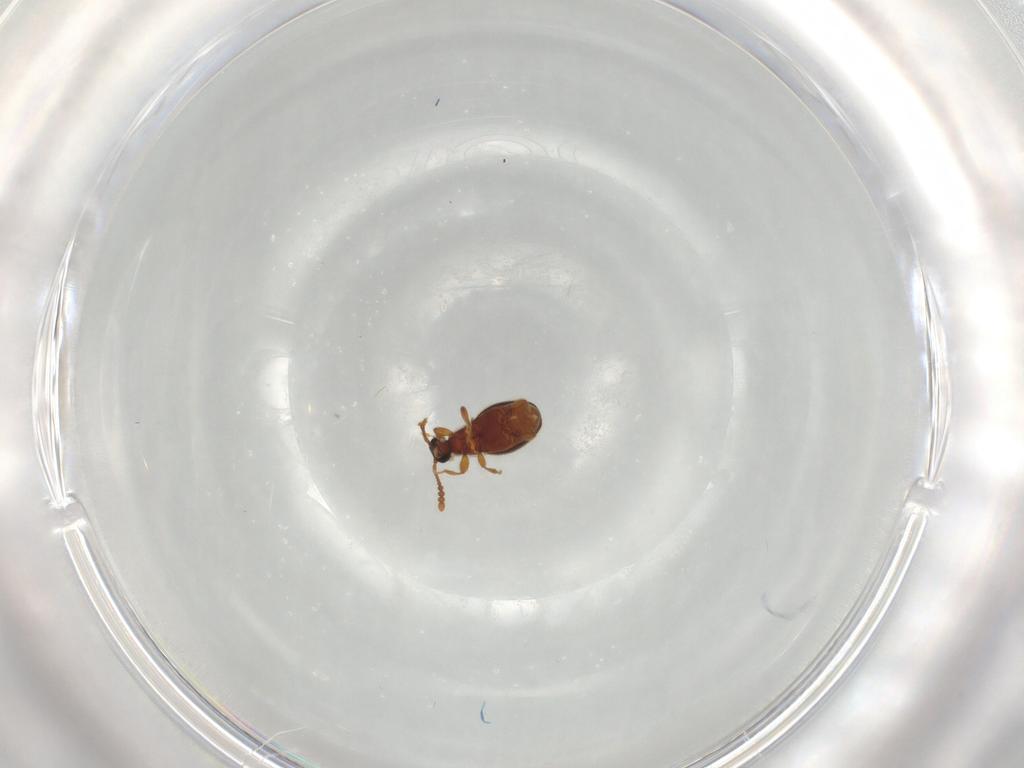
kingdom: Animalia
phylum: Arthropoda
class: Insecta
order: Coleoptera
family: Staphylinidae
